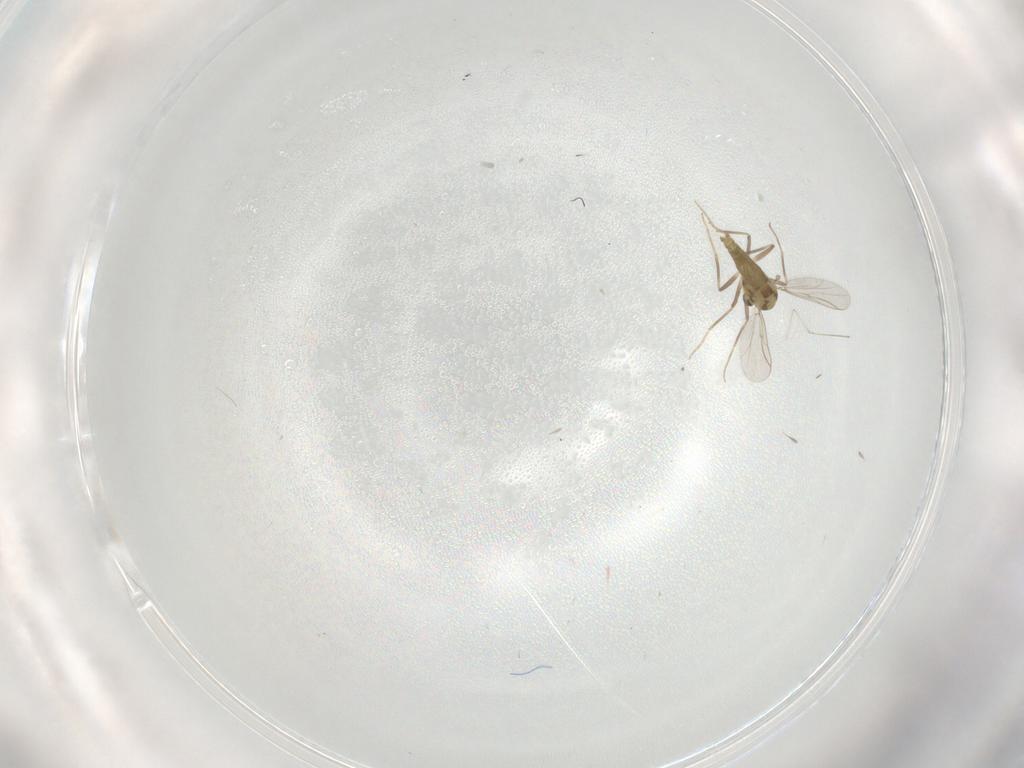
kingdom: Animalia
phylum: Arthropoda
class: Insecta
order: Diptera
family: Chironomidae
